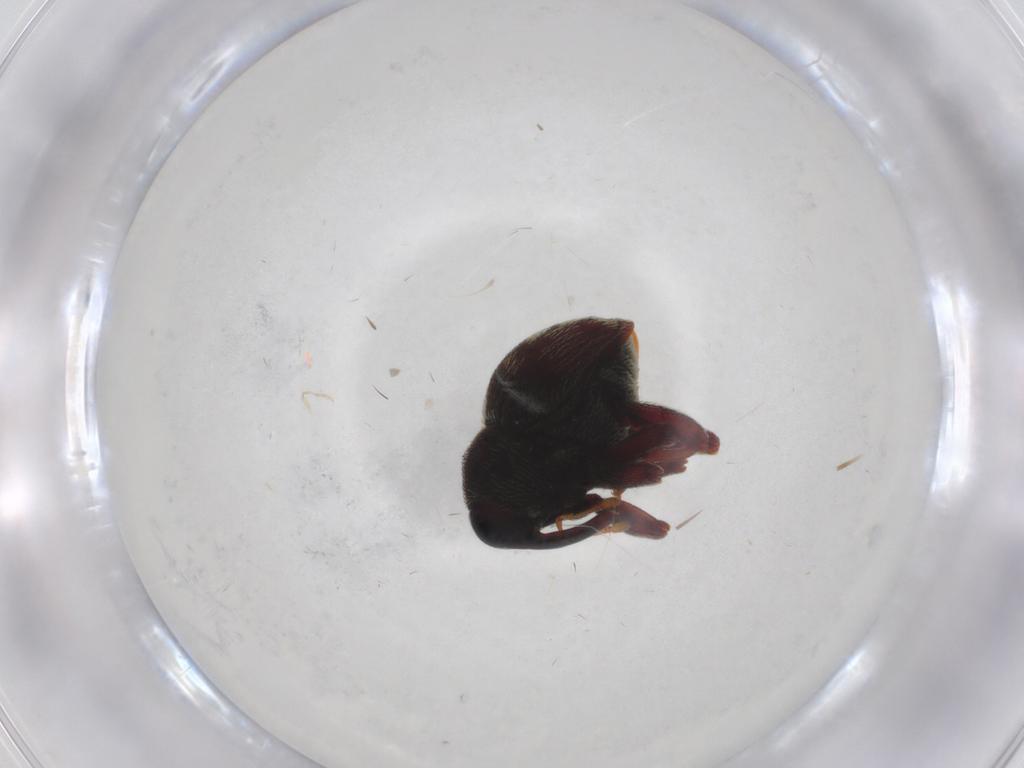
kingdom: Animalia
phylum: Arthropoda
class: Insecta
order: Coleoptera
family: Curculionidae
